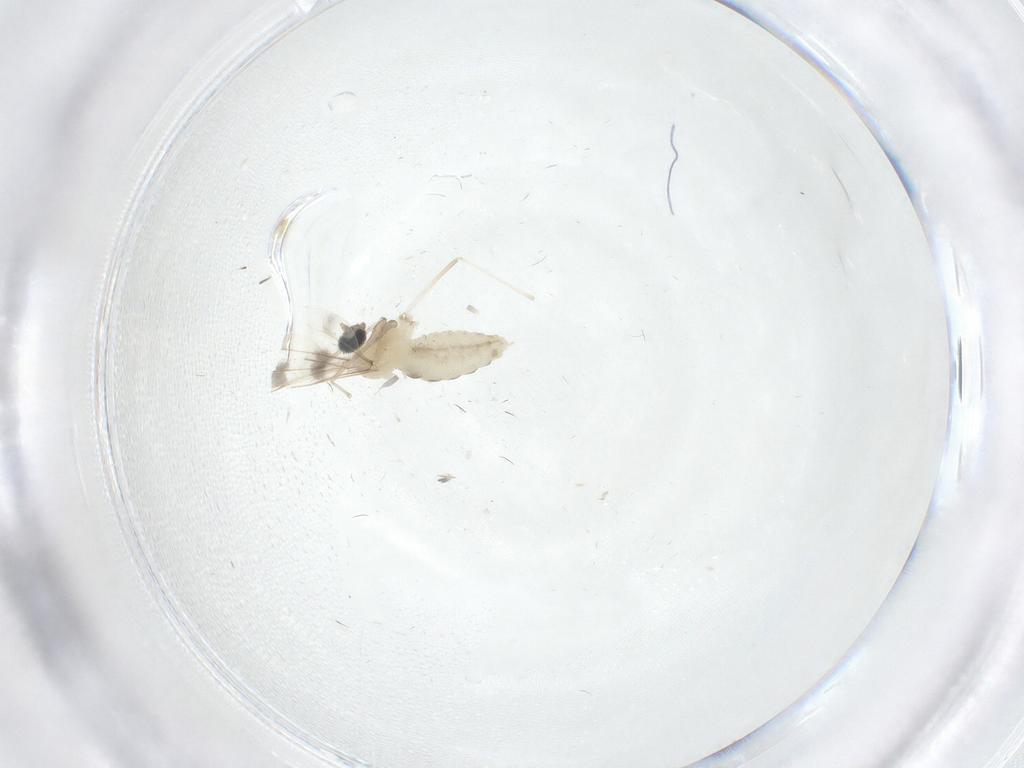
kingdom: Animalia
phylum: Arthropoda
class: Insecta
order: Diptera
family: Cecidomyiidae
